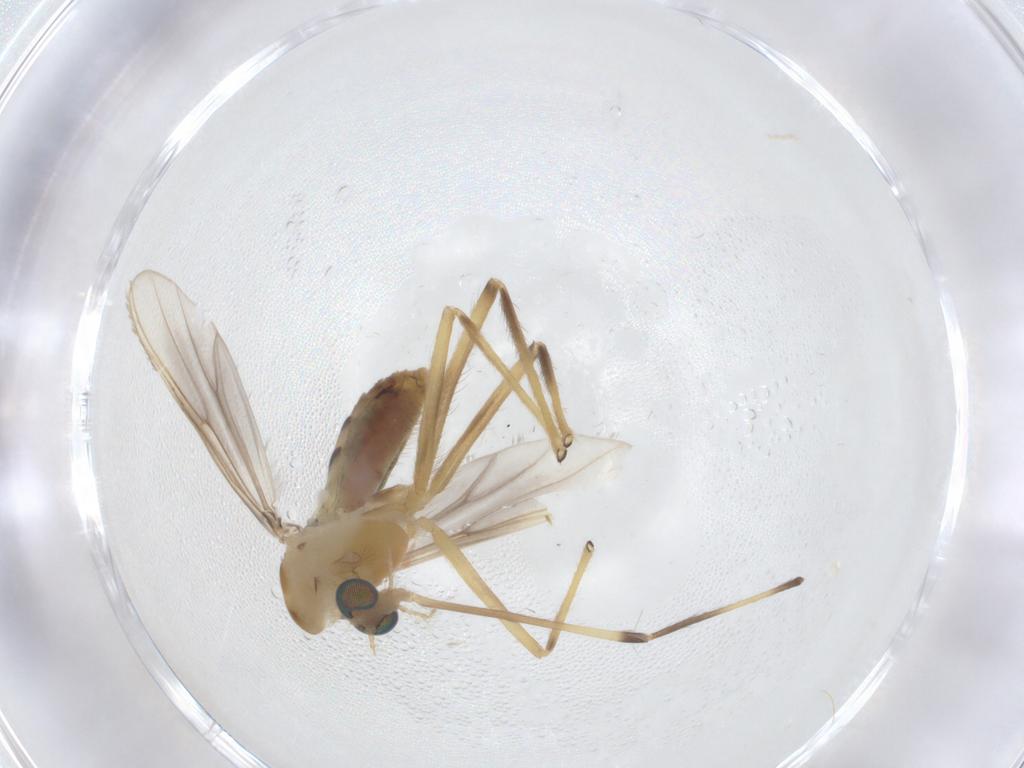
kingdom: Animalia
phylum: Arthropoda
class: Insecta
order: Diptera
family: Chironomidae
